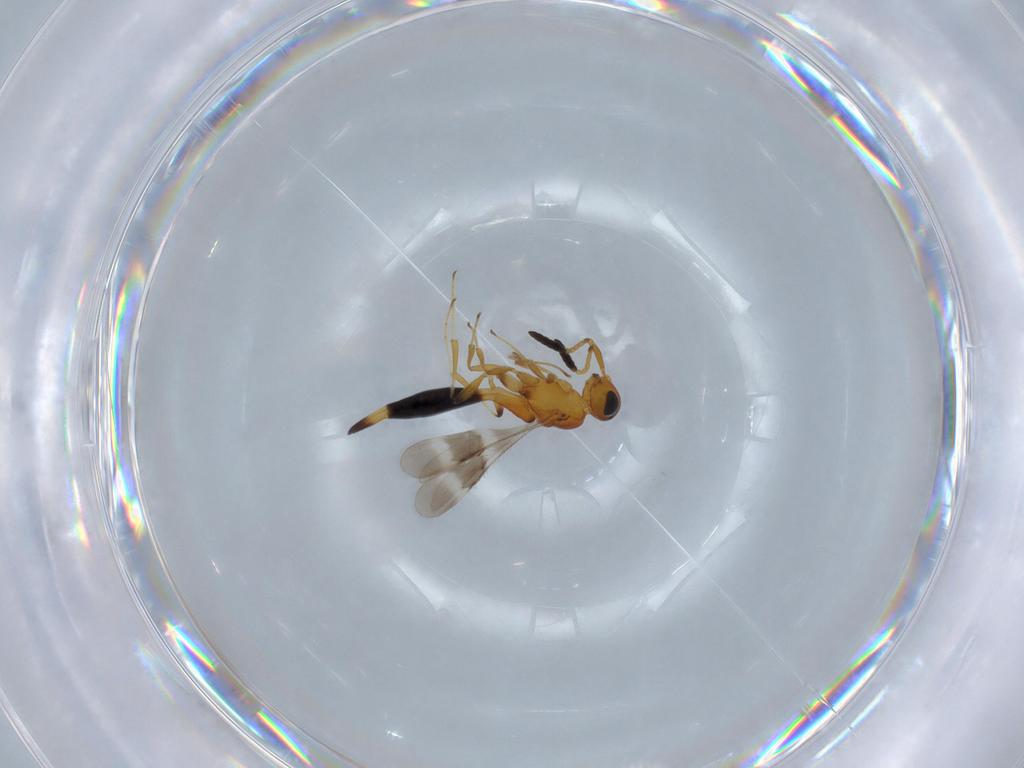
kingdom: Animalia
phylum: Arthropoda
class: Insecta
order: Hymenoptera
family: Scelionidae
